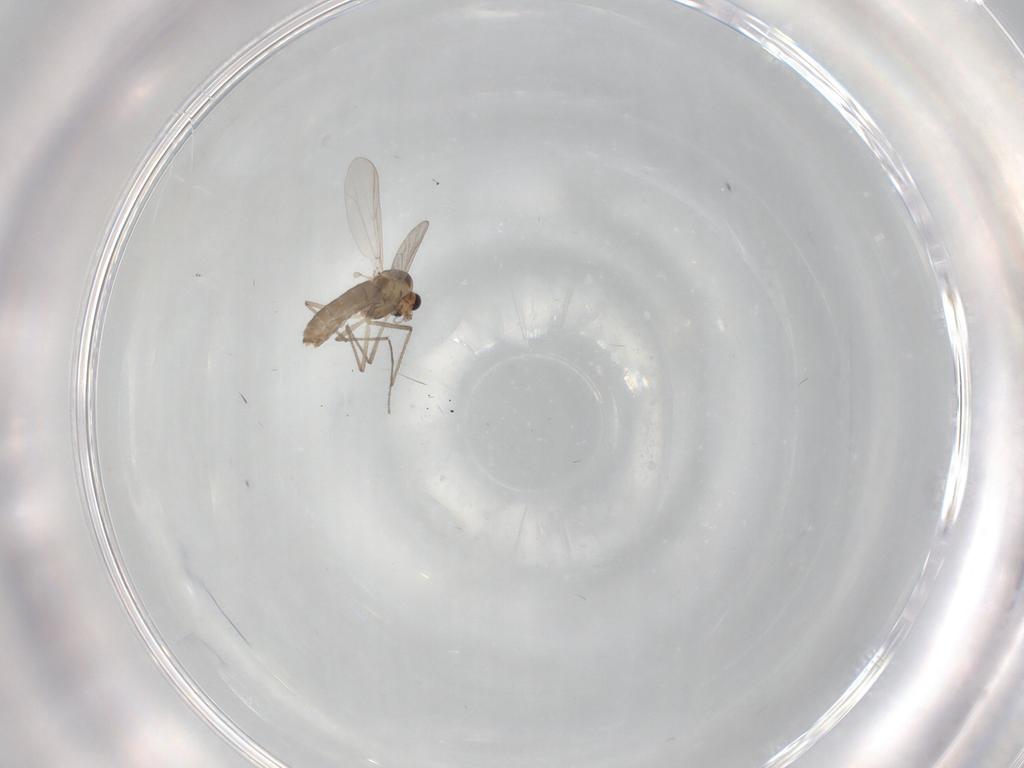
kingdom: Animalia
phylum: Arthropoda
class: Insecta
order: Diptera
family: Chironomidae
